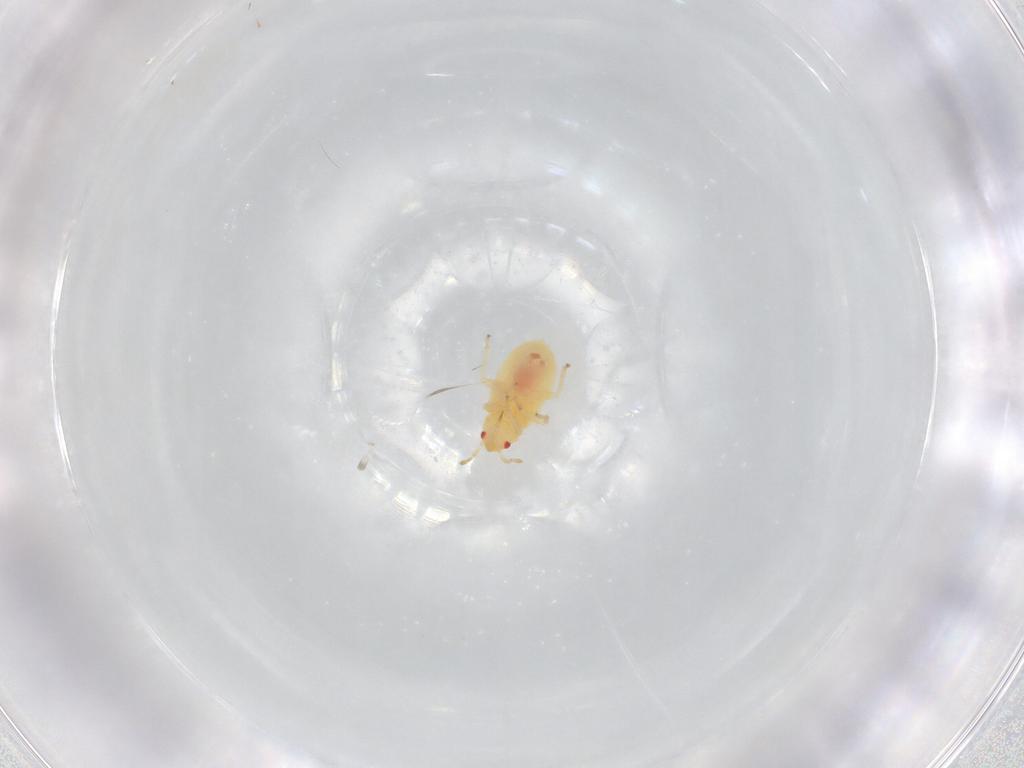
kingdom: Animalia
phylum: Arthropoda
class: Insecta
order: Hemiptera
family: Anthocoridae
